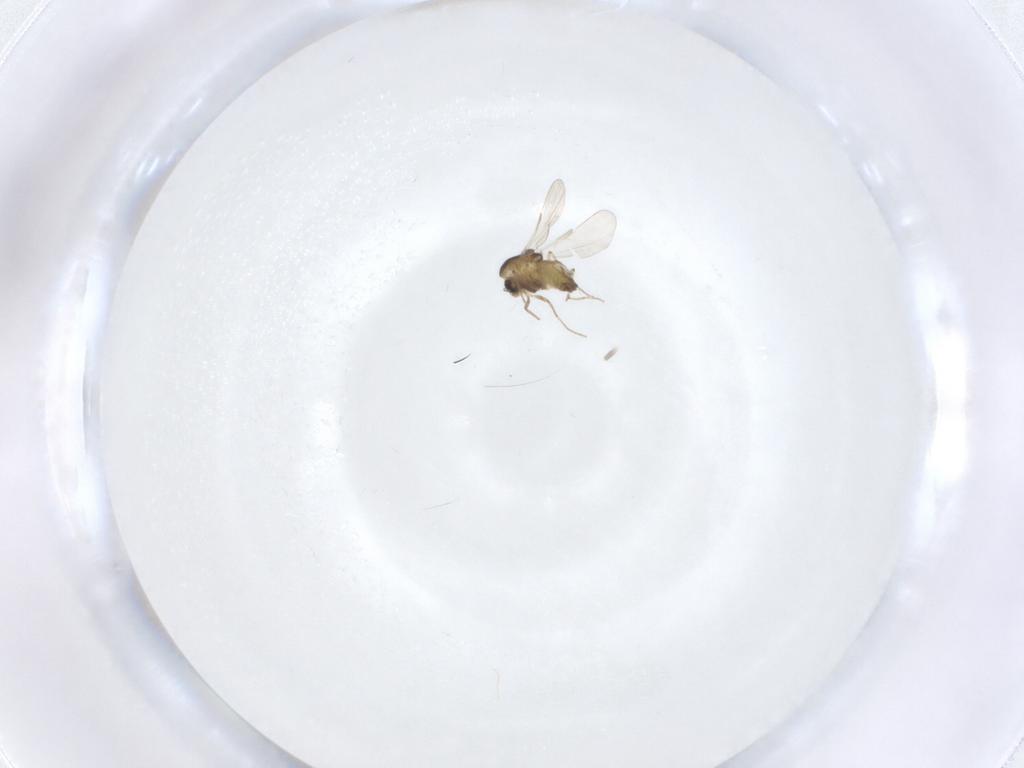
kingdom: Animalia
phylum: Arthropoda
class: Insecta
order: Diptera
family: Chironomidae
